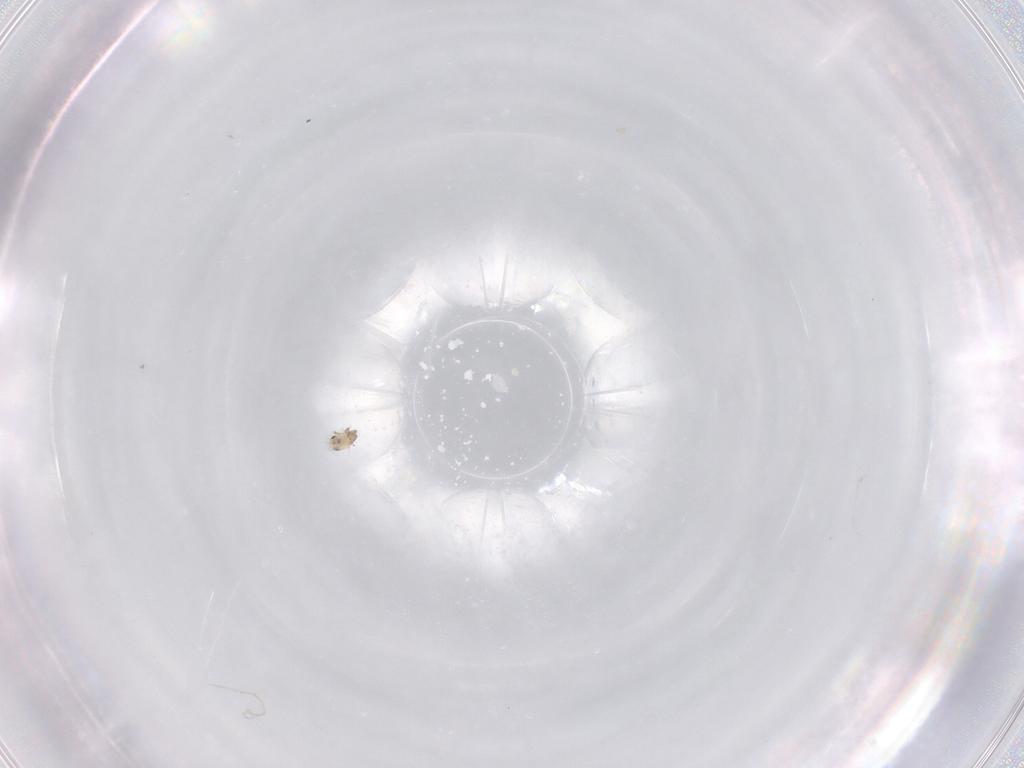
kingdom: Animalia
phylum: Arthropoda
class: Arachnida
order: Sarcoptiformes
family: Humerobatidae
